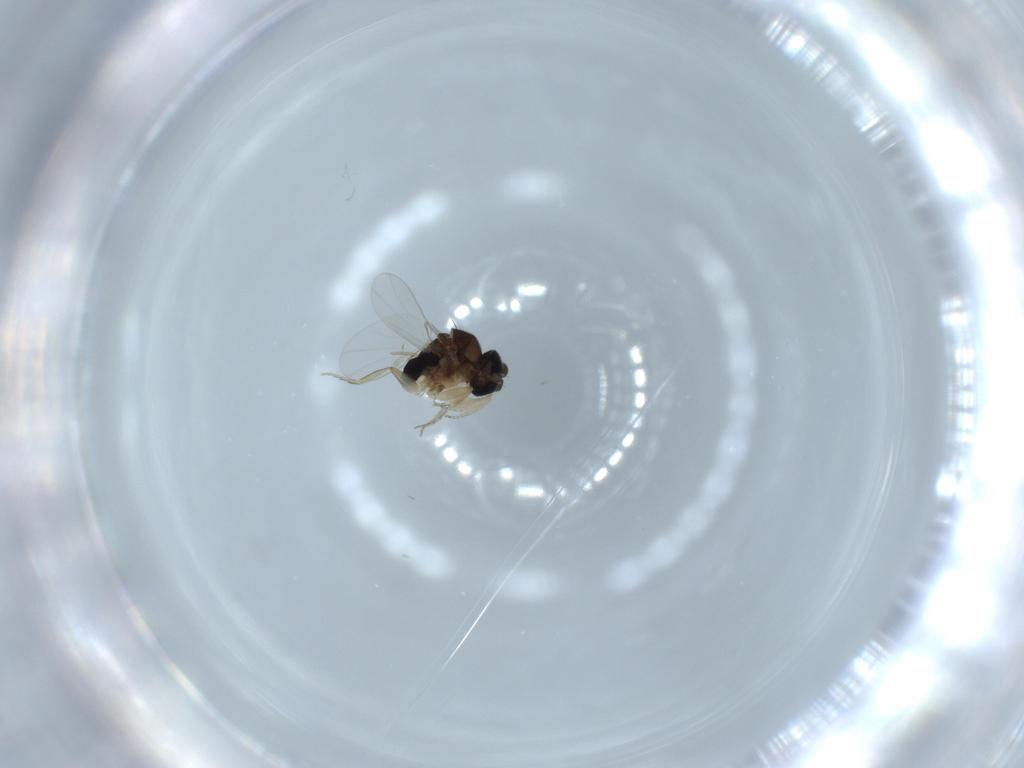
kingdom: Animalia
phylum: Arthropoda
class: Insecta
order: Diptera
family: Phoridae
